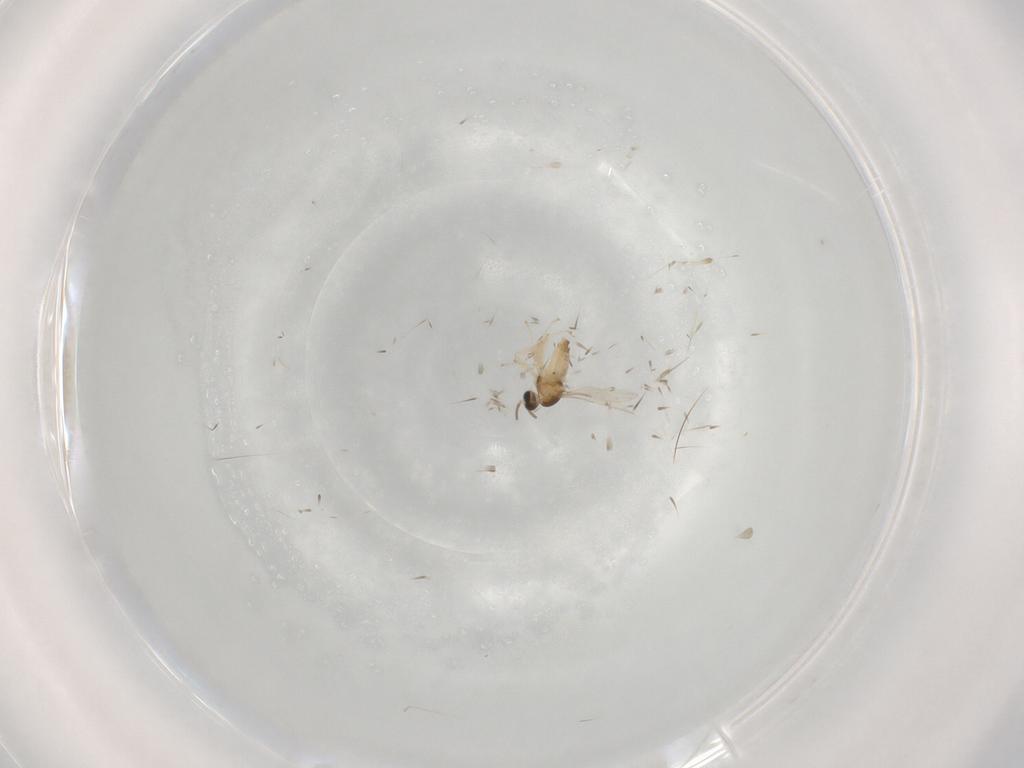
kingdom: Animalia
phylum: Arthropoda
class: Insecta
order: Diptera
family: Cecidomyiidae
